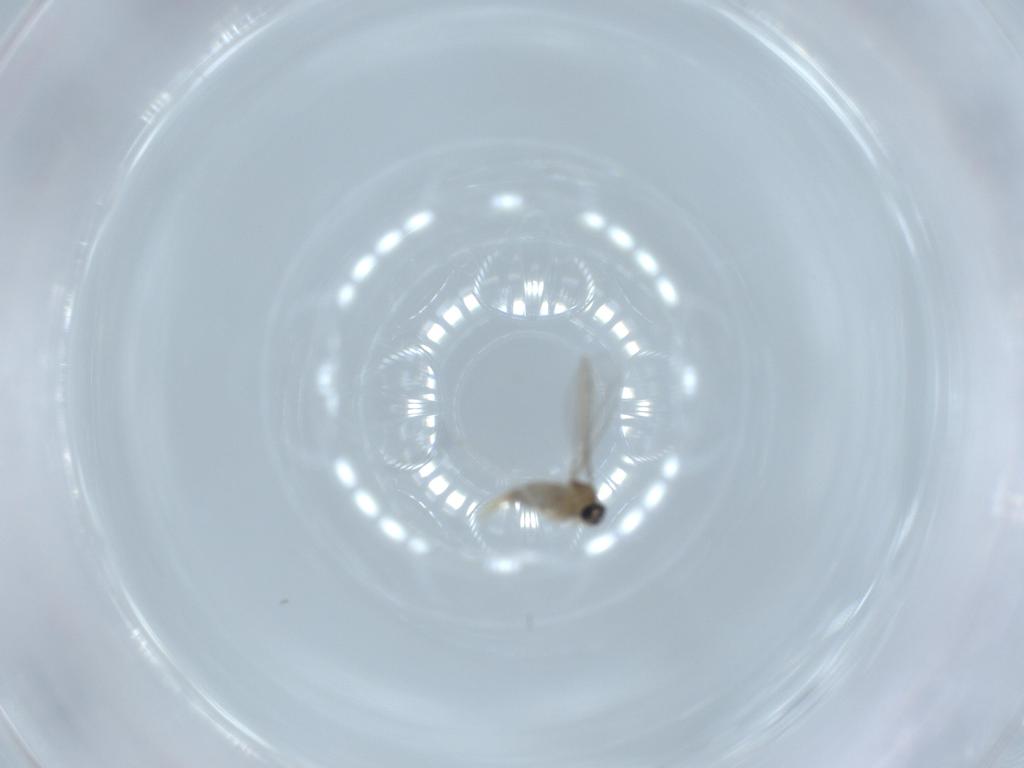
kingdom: Animalia
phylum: Arthropoda
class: Insecta
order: Diptera
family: Cecidomyiidae
